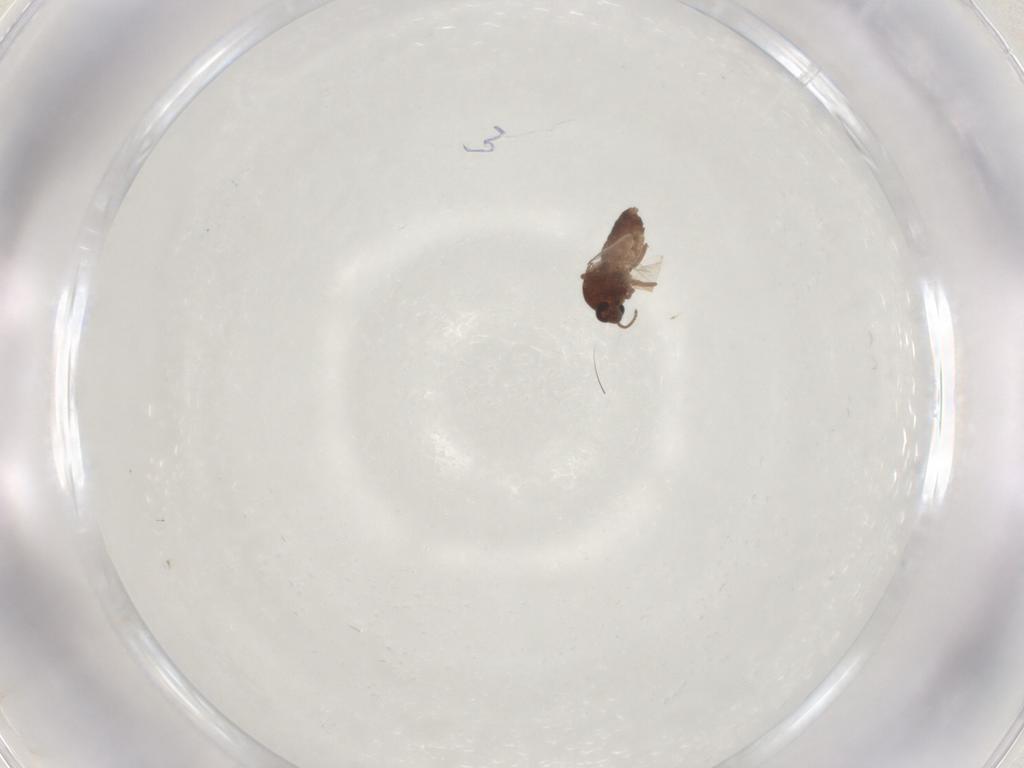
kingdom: Animalia
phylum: Arthropoda
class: Insecta
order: Diptera
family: Ceratopogonidae
